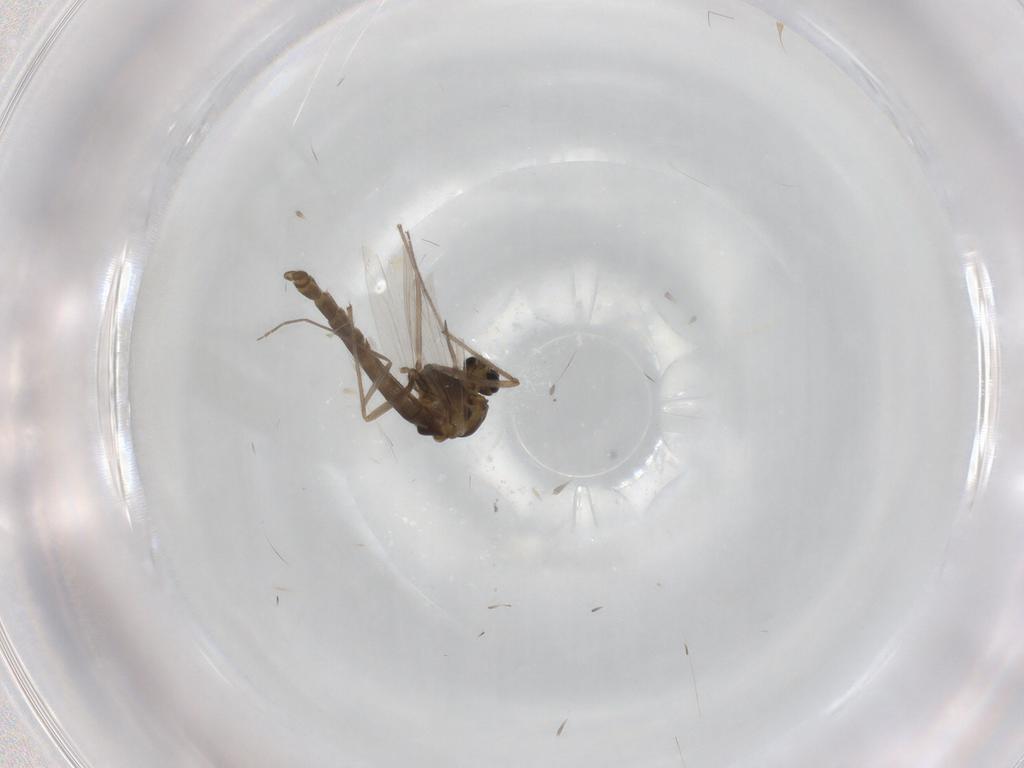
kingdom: Animalia
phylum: Arthropoda
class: Insecta
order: Diptera
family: Chironomidae
